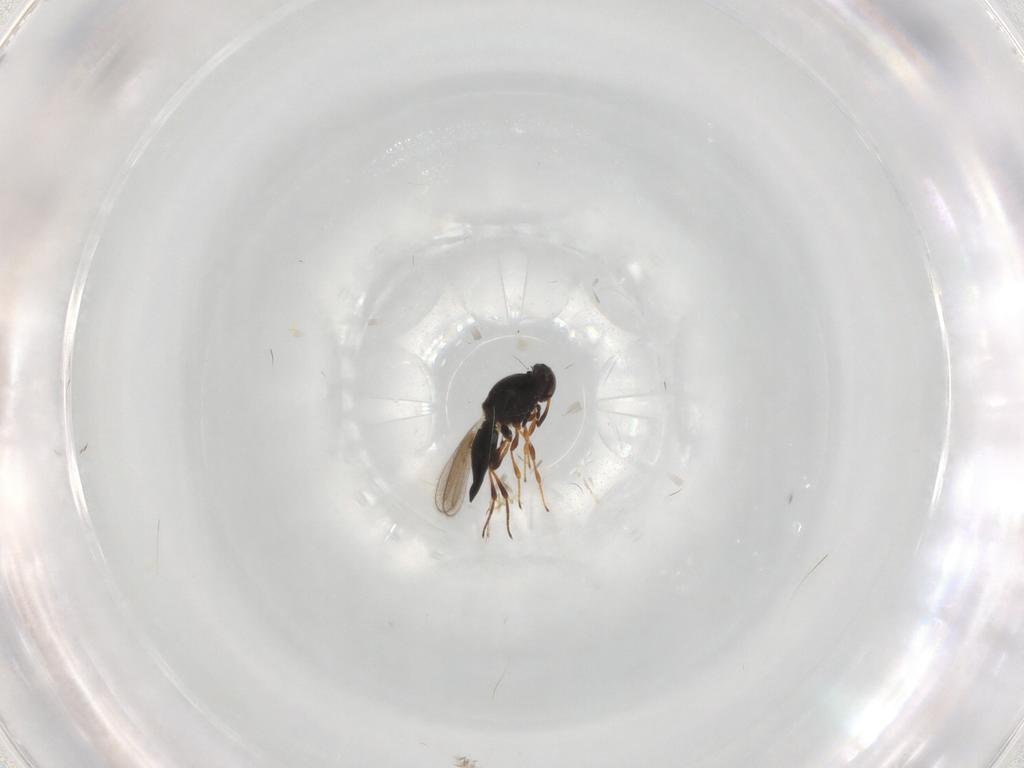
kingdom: Animalia
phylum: Arthropoda
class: Insecta
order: Hymenoptera
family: Platygastridae
